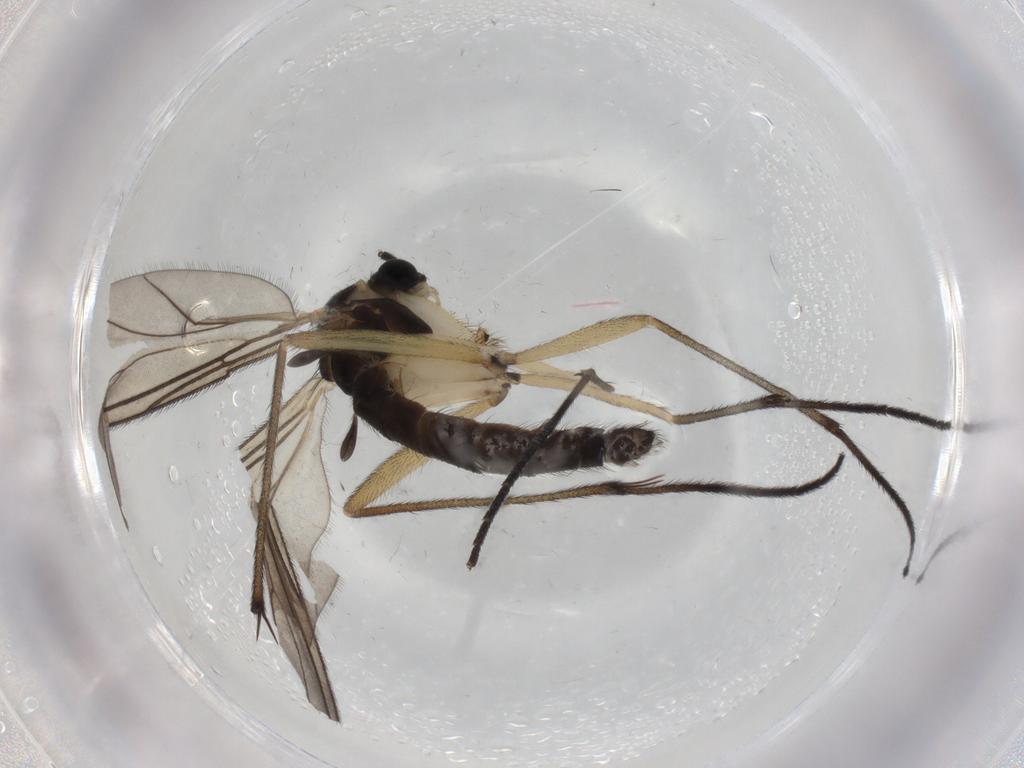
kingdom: Animalia
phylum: Arthropoda
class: Insecta
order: Diptera
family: Sciaridae
